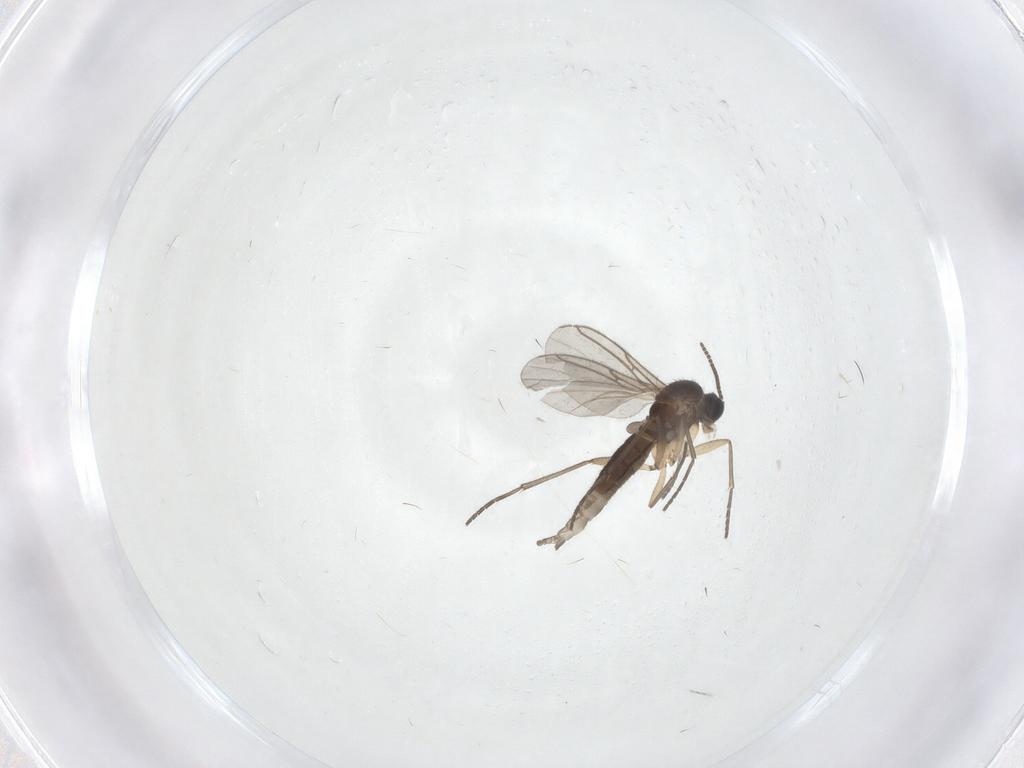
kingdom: Animalia
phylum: Arthropoda
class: Insecta
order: Diptera
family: Sciaridae
